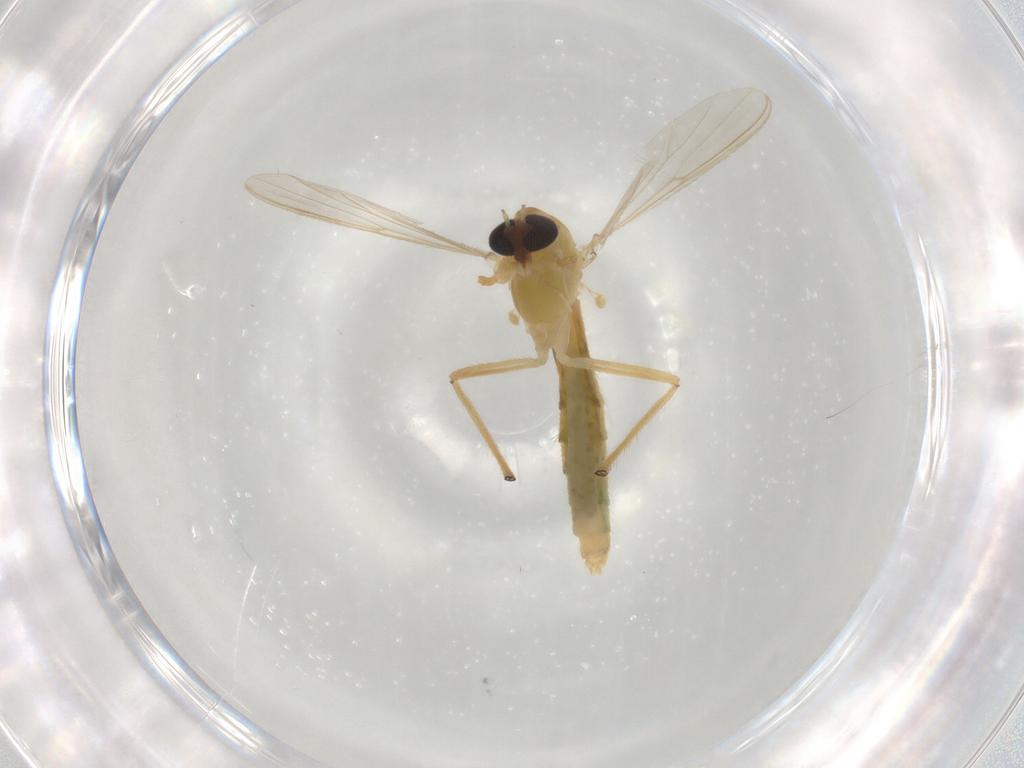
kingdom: Animalia
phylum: Arthropoda
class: Insecta
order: Diptera
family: Chironomidae
